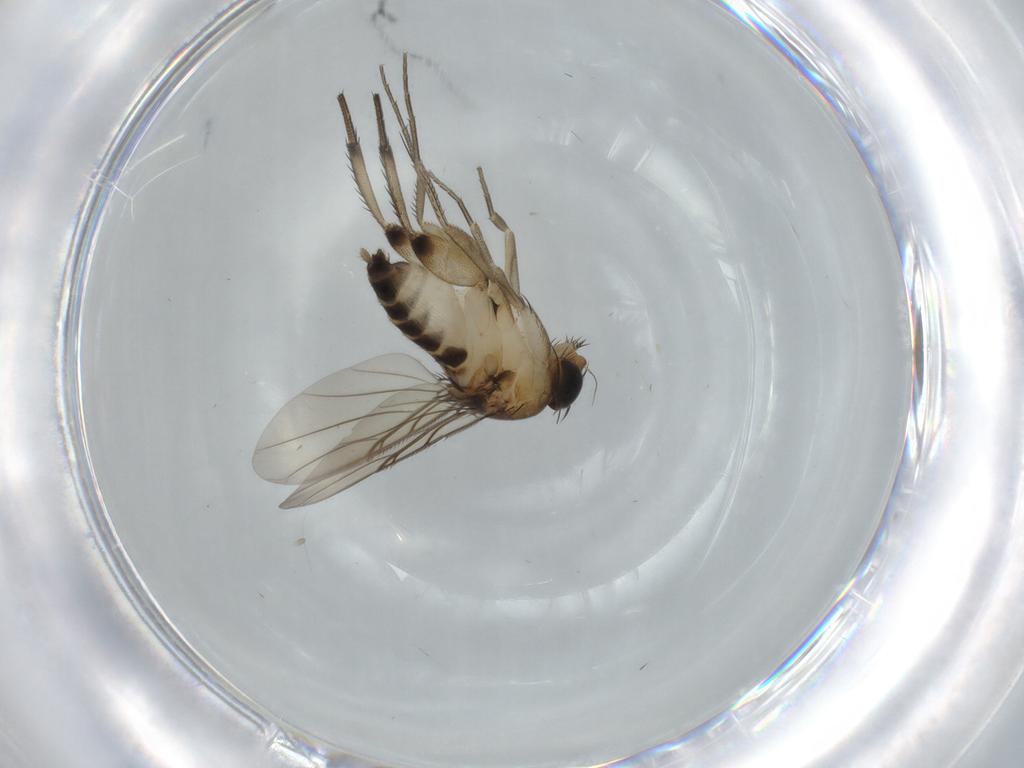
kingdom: Animalia
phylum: Arthropoda
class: Insecta
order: Diptera
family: Phoridae
